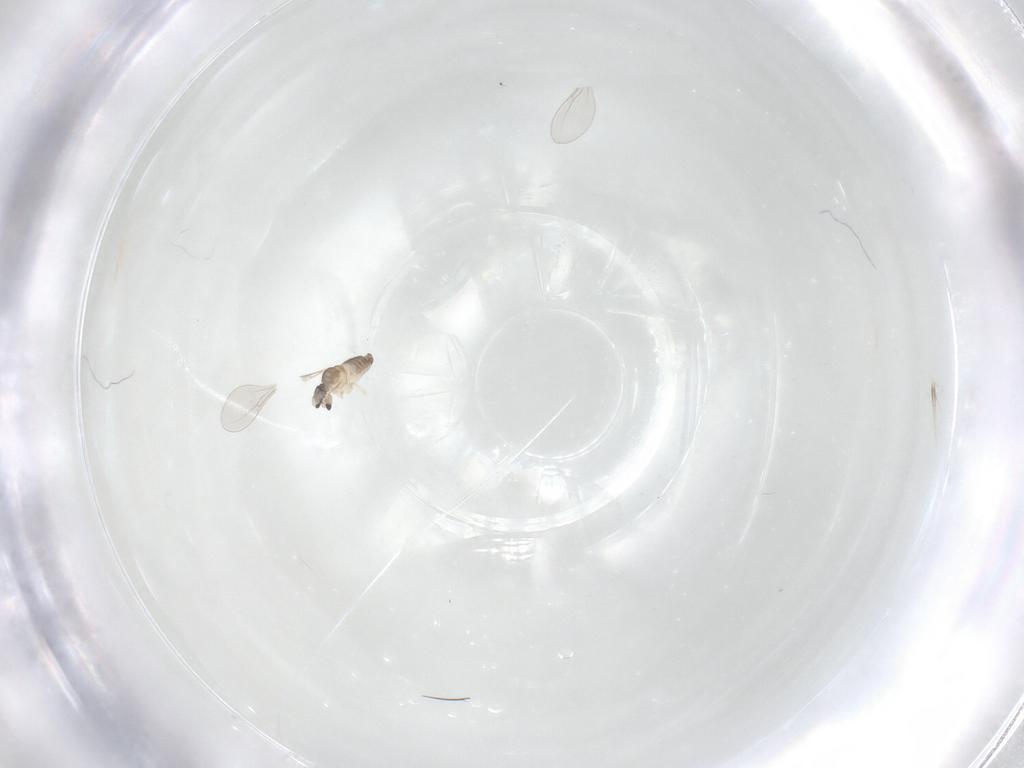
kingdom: Animalia
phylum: Arthropoda
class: Insecta
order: Diptera
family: Cecidomyiidae
